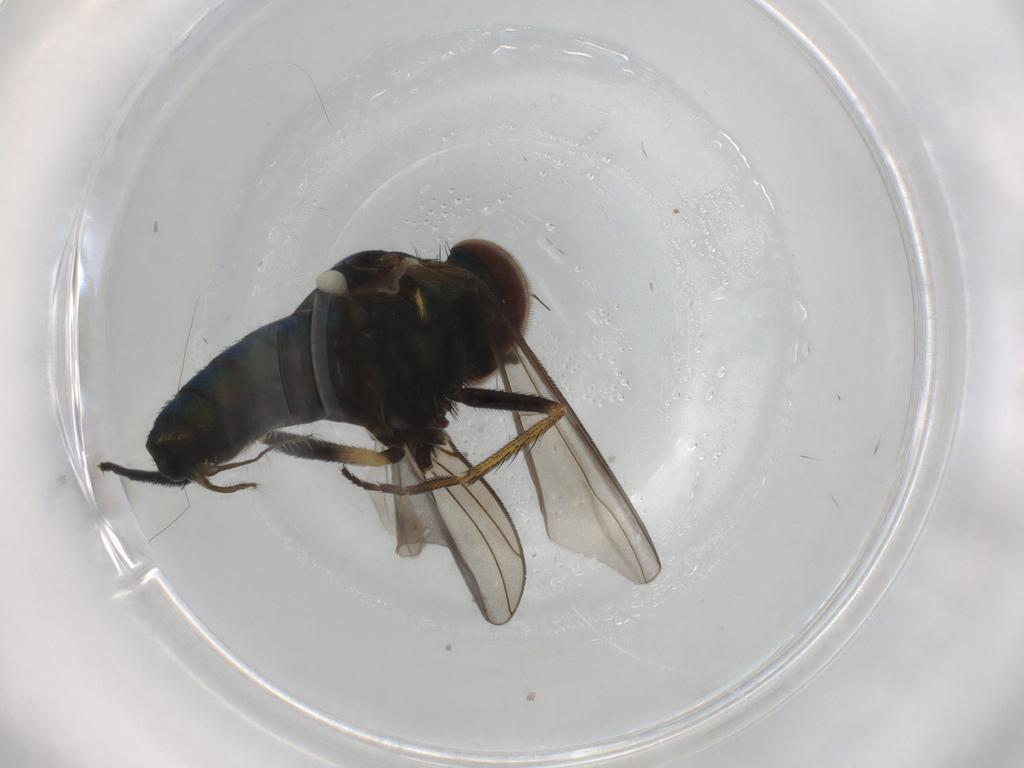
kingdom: Animalia
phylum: Arthropoda
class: Insecta
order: Diptera
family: Dolichopodidae
